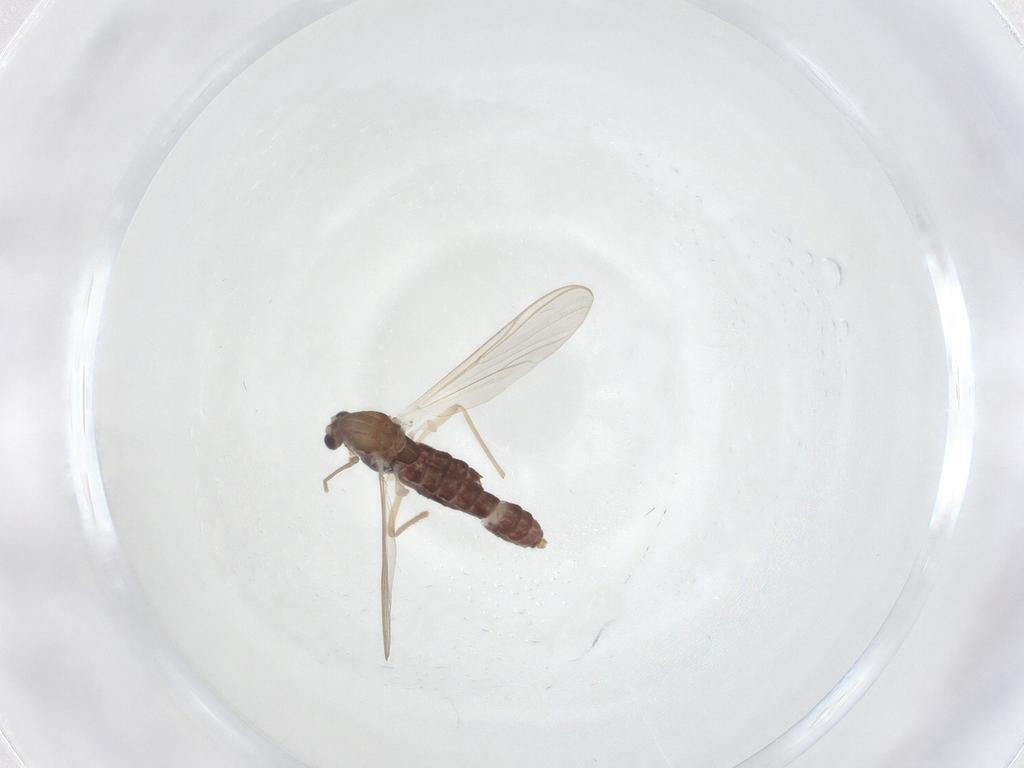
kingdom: Animalia
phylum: Arthropoda
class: Insecta
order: Diptera
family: Chironomidae
